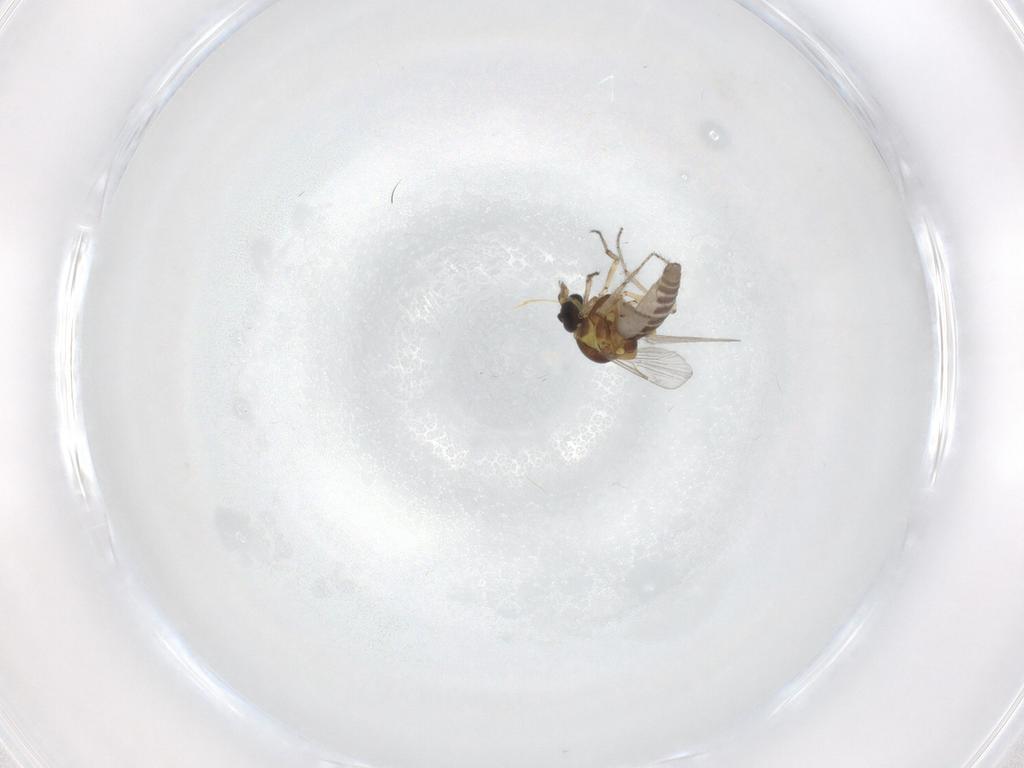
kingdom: Animalia
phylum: Arthropoda
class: Insecta
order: Diptera
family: Ceratopogonidae
